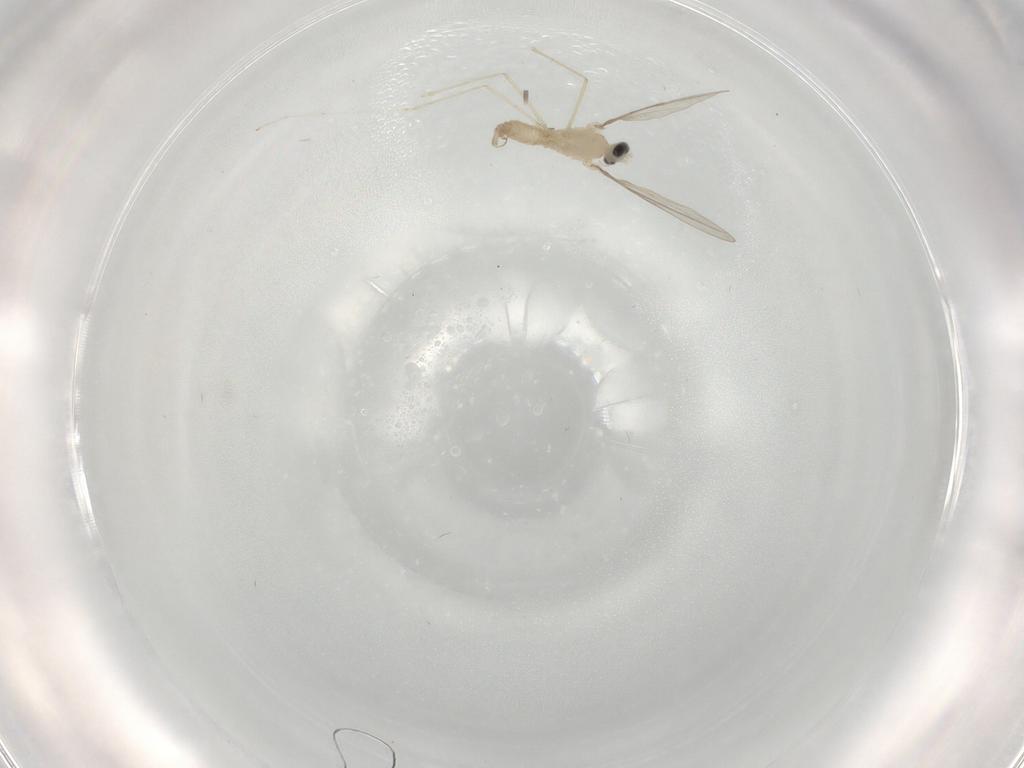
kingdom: Animalia
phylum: Arthropoda
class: Insecta
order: Diptera
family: Cecidomyiidae
